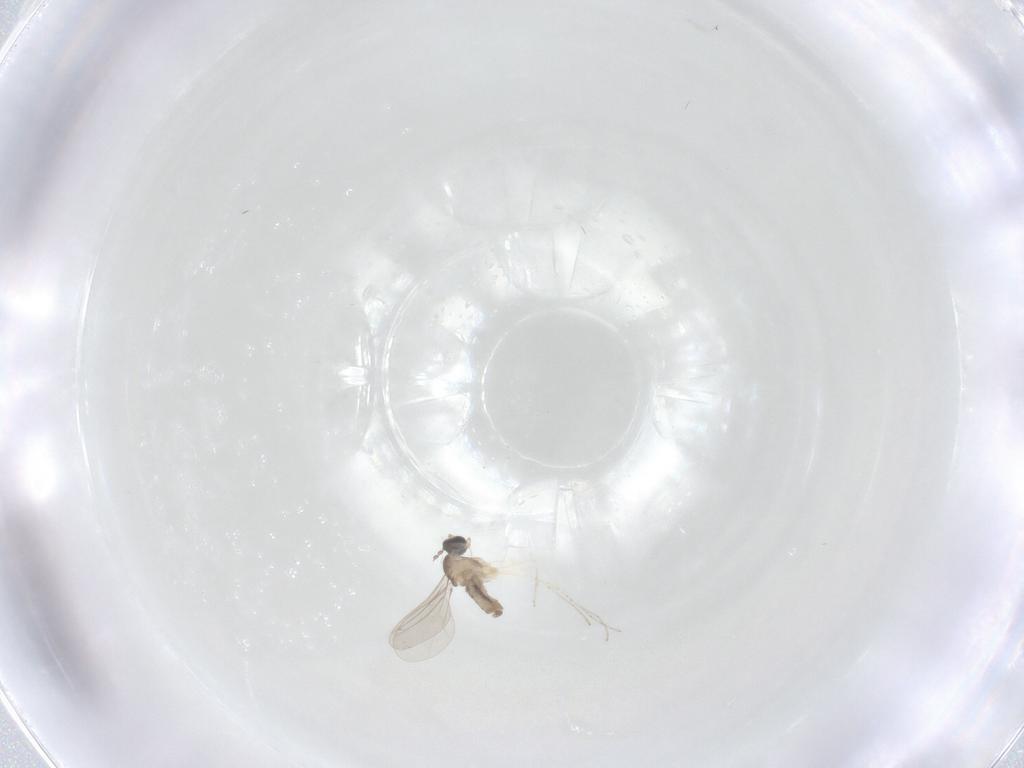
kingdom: Animalia
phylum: Arthropoda
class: Insecta
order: Diptera
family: Cecidomyiidae
